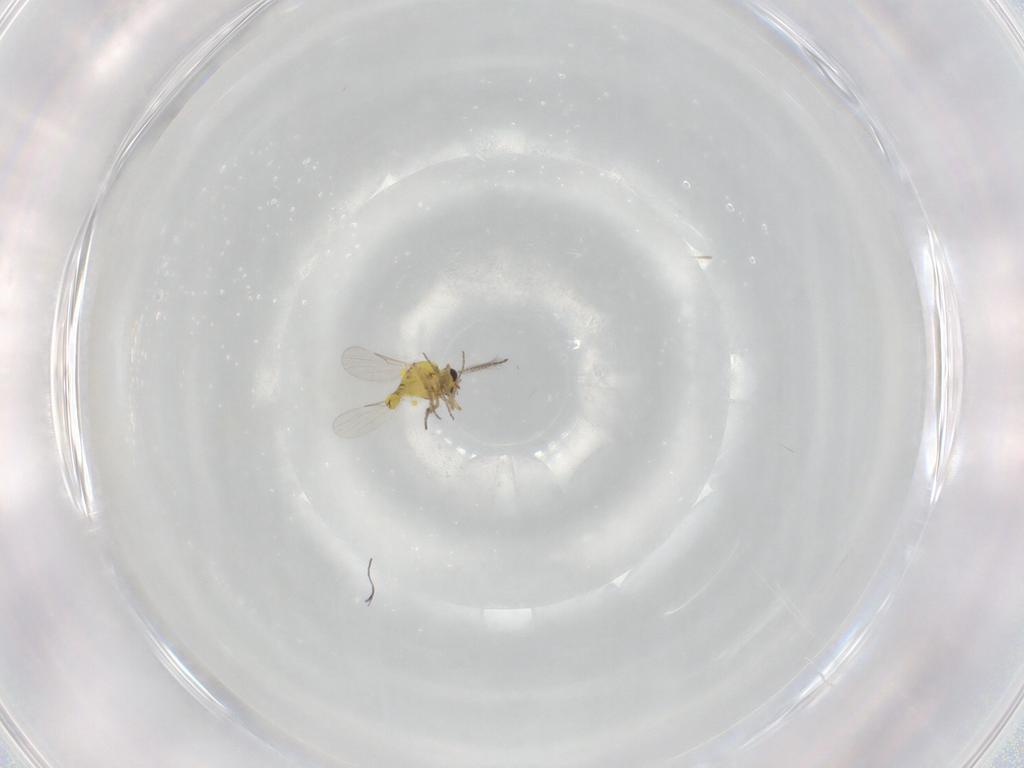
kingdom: Animalia
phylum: Arthropoda
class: Insecta
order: Diptera
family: Ceratopogonidae
